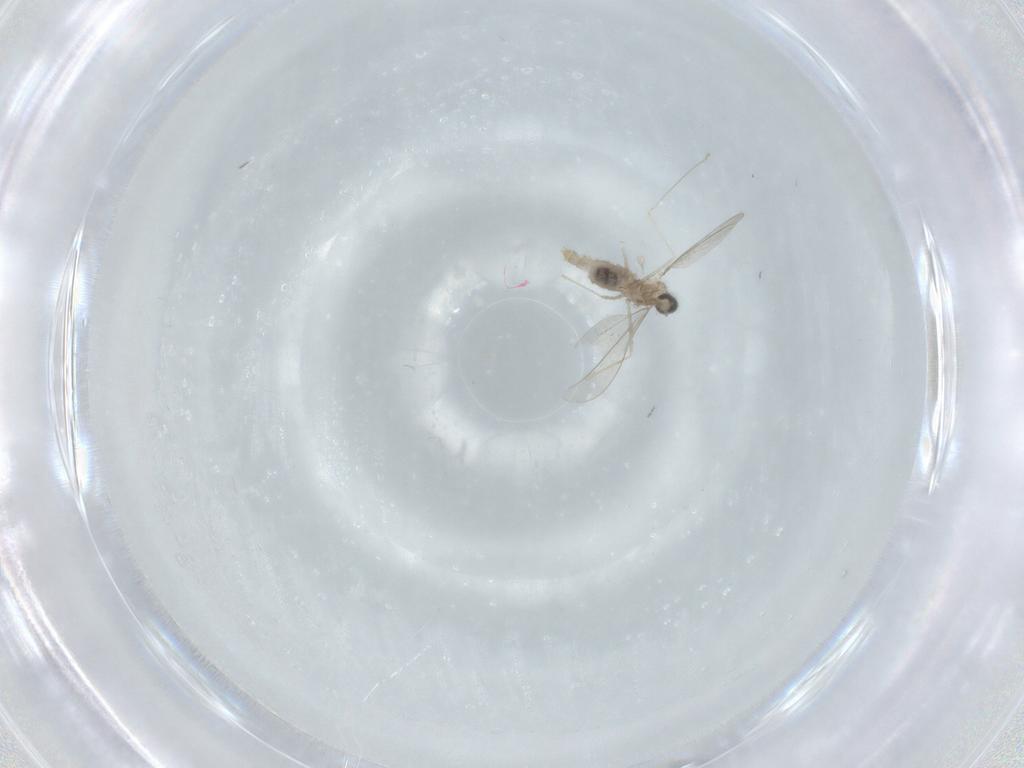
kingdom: Animalia
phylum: Arthropoda
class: Insecta
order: Diptera
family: Cecidomyiidae
